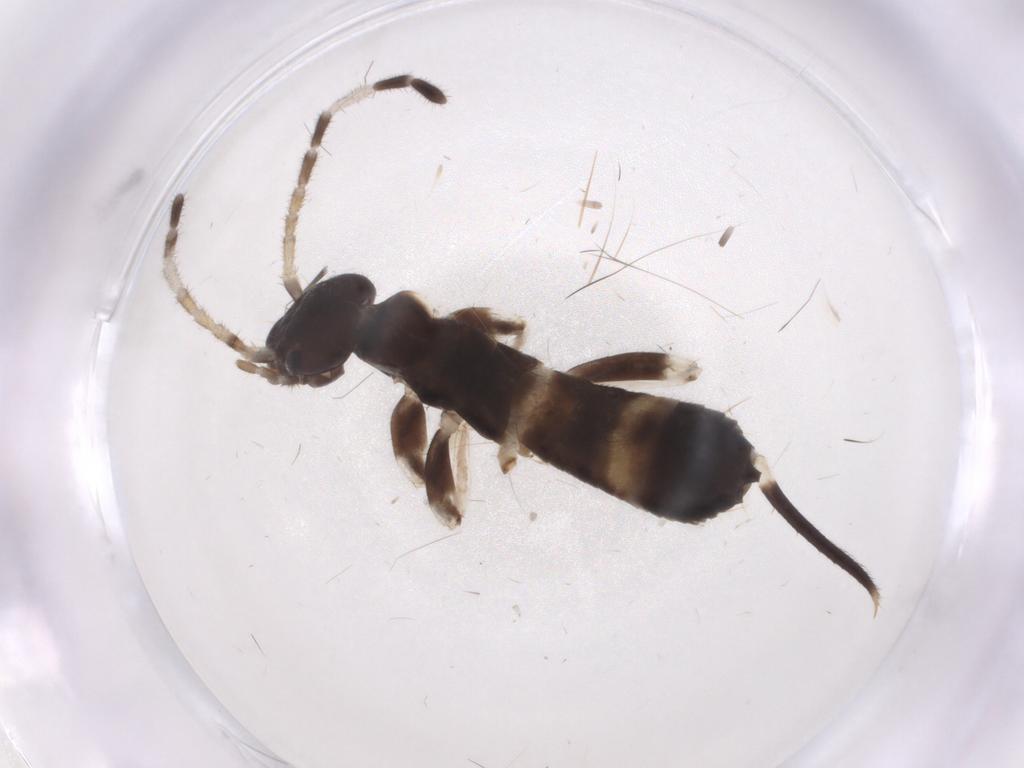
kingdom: Animalia
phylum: Arthropoda
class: Insecta
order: Dermaptera
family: Anisolabididae
